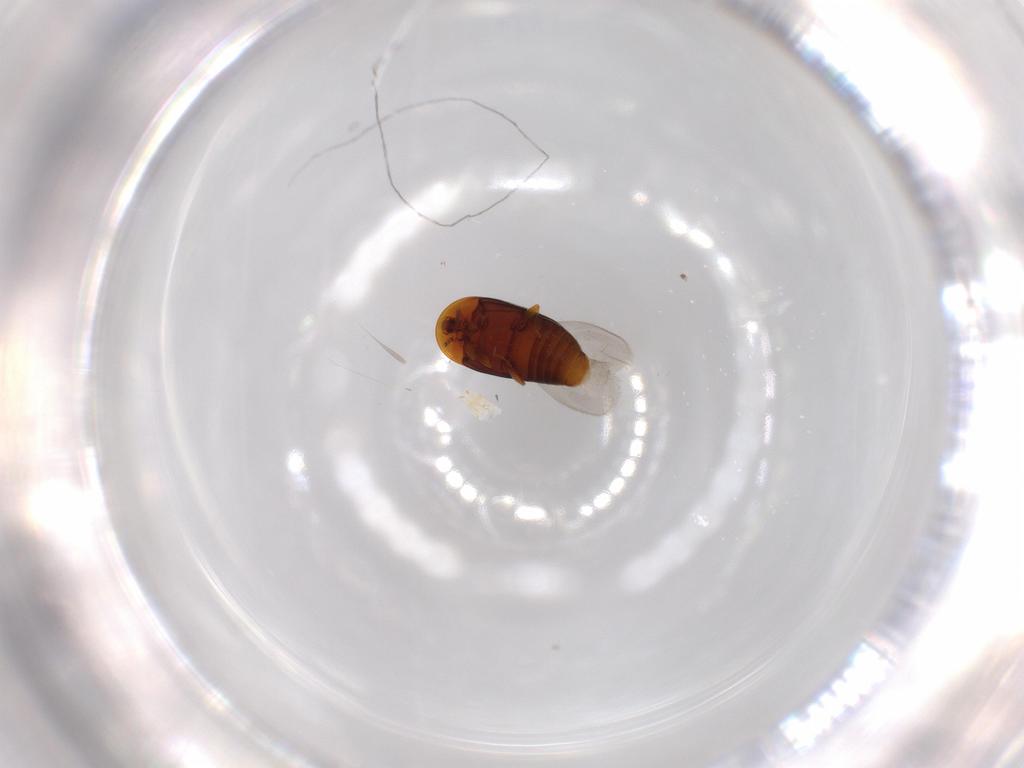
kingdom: Animalia
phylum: Arthropoda
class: Insecta
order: Coleoptera
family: Corylophidae
